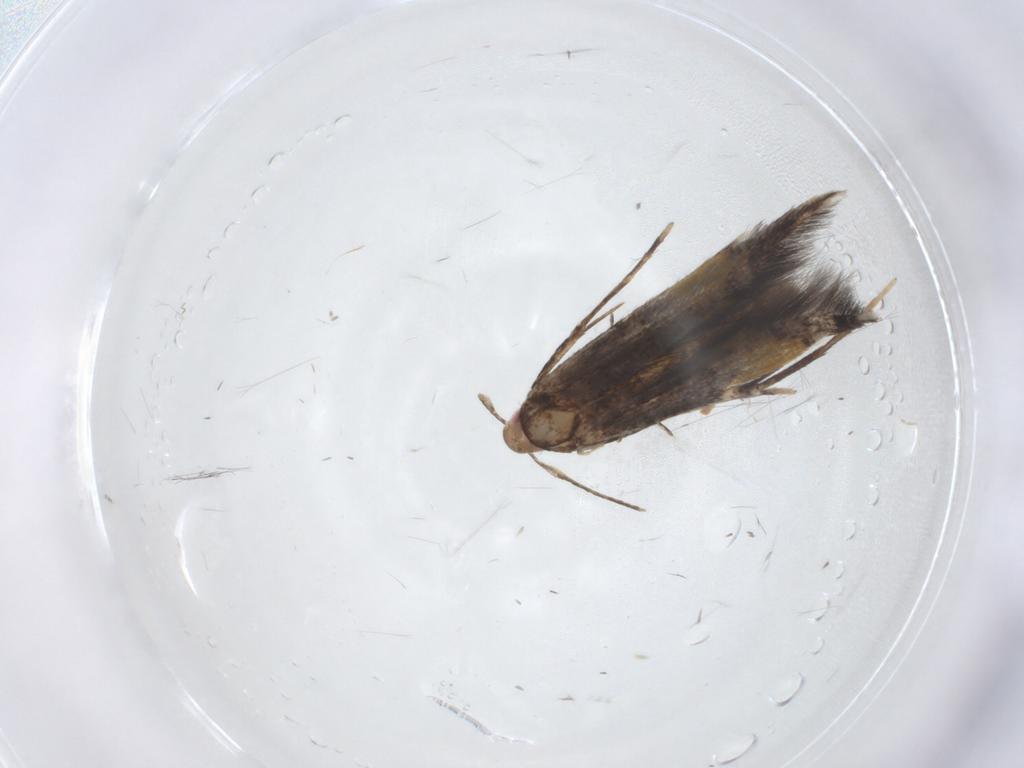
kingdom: Animalia
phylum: Arthropoda
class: Insecta
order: Lepidoptera
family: Cosmopterigidae
